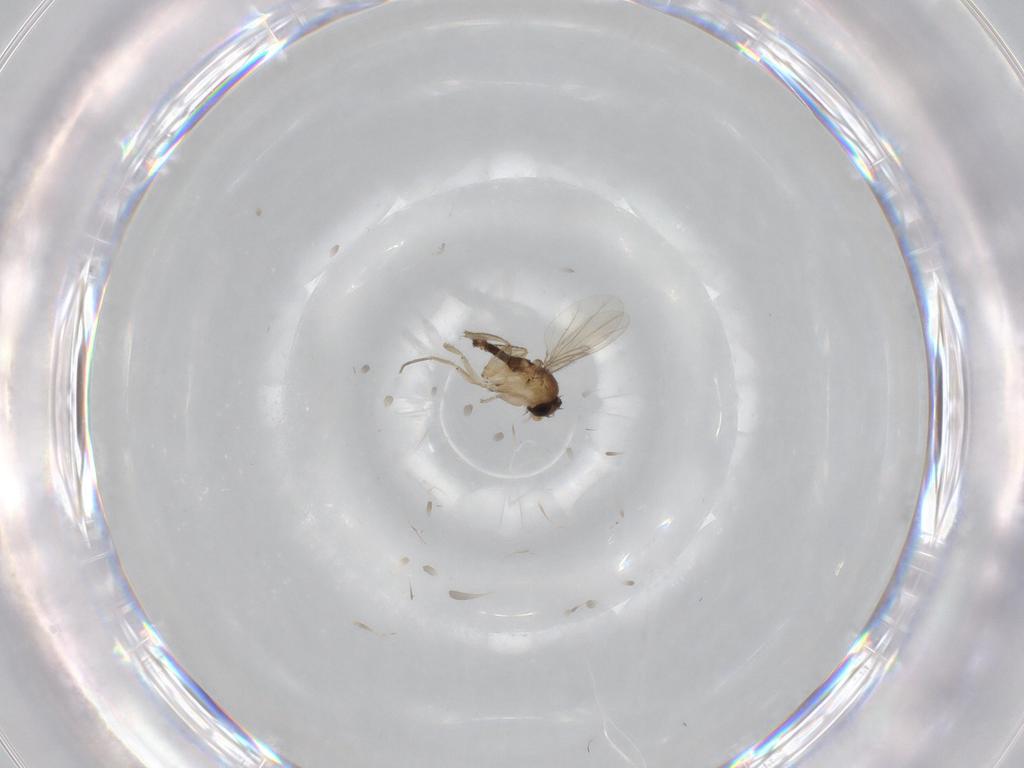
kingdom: Animalia
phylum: Arthropoda
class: Insecta
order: Diptera
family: Phoridae
